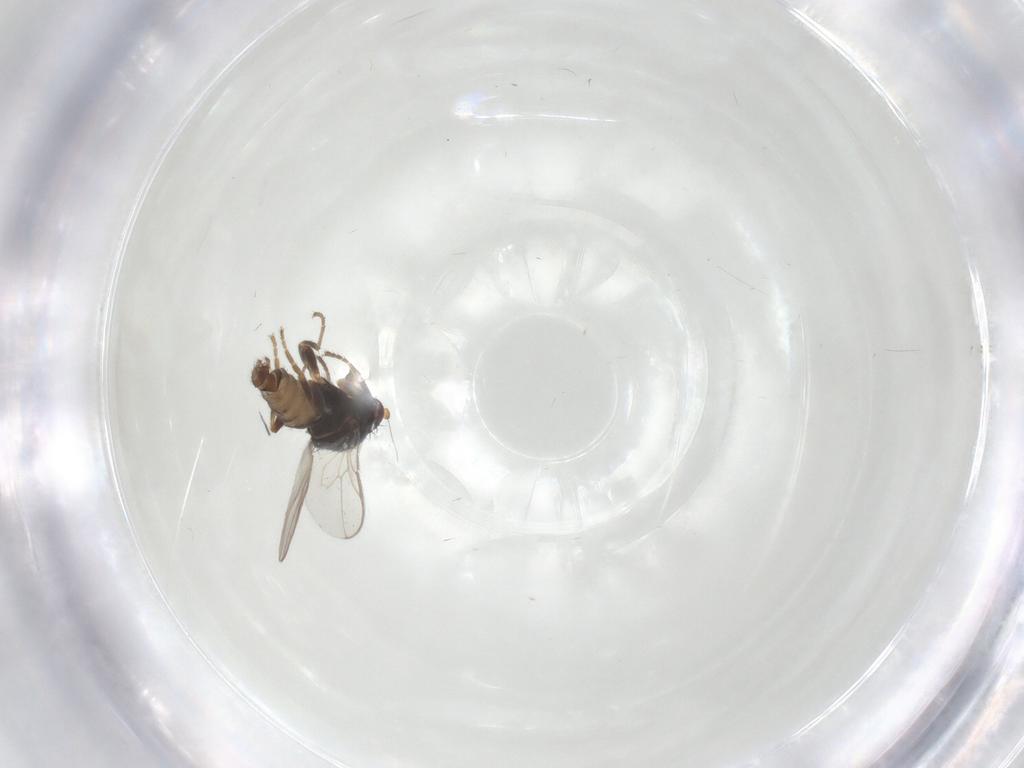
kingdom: Animalia
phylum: Arthropoda
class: Insecta
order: Diptera
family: Sphaeroceridae
